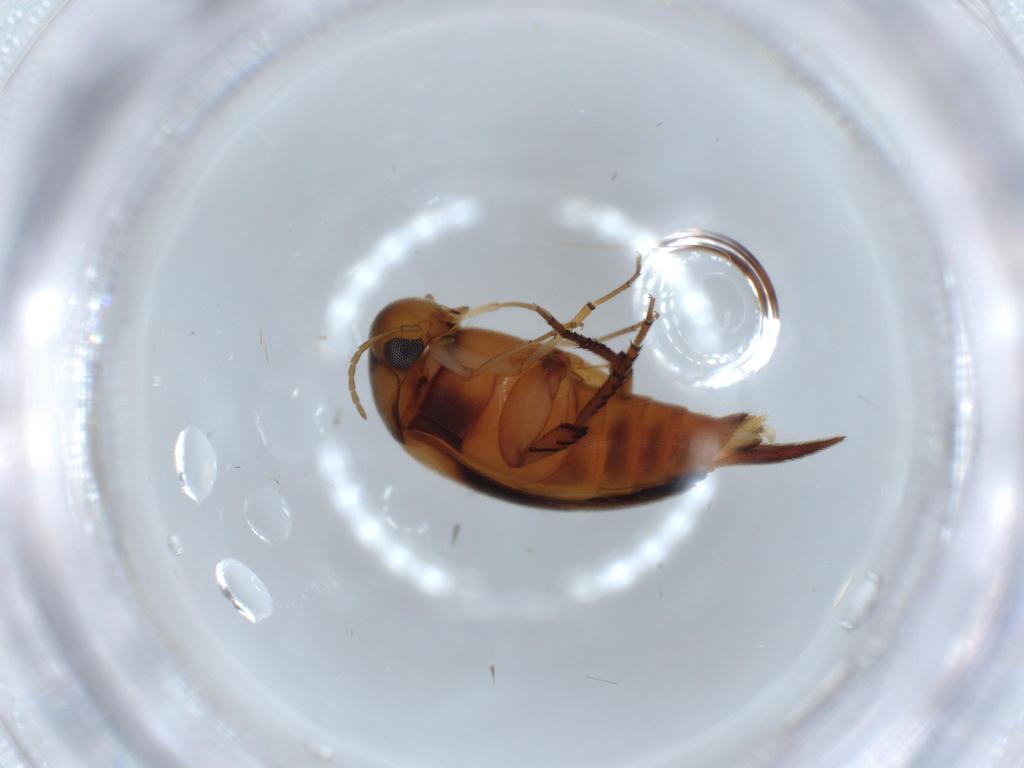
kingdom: Animalia
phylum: Arthropoda
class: Insecta
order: Coleoptera
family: Mordellidae
